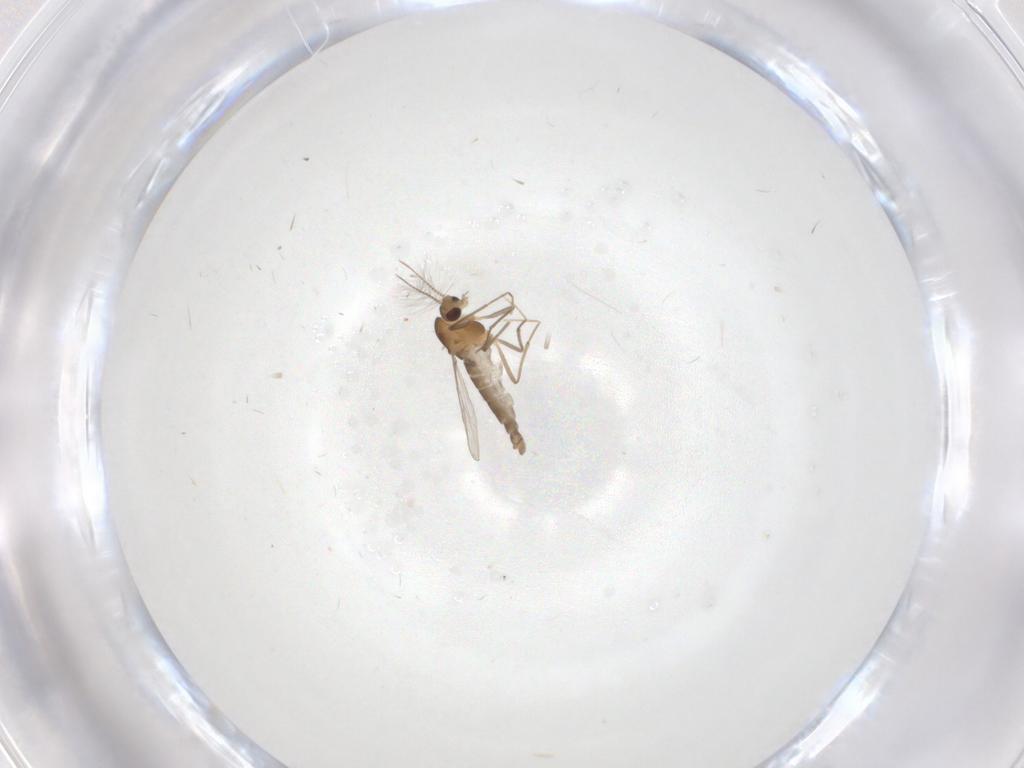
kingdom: Animalia
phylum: Arthropoda
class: Insecta
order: Diptera
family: Chironomidae
